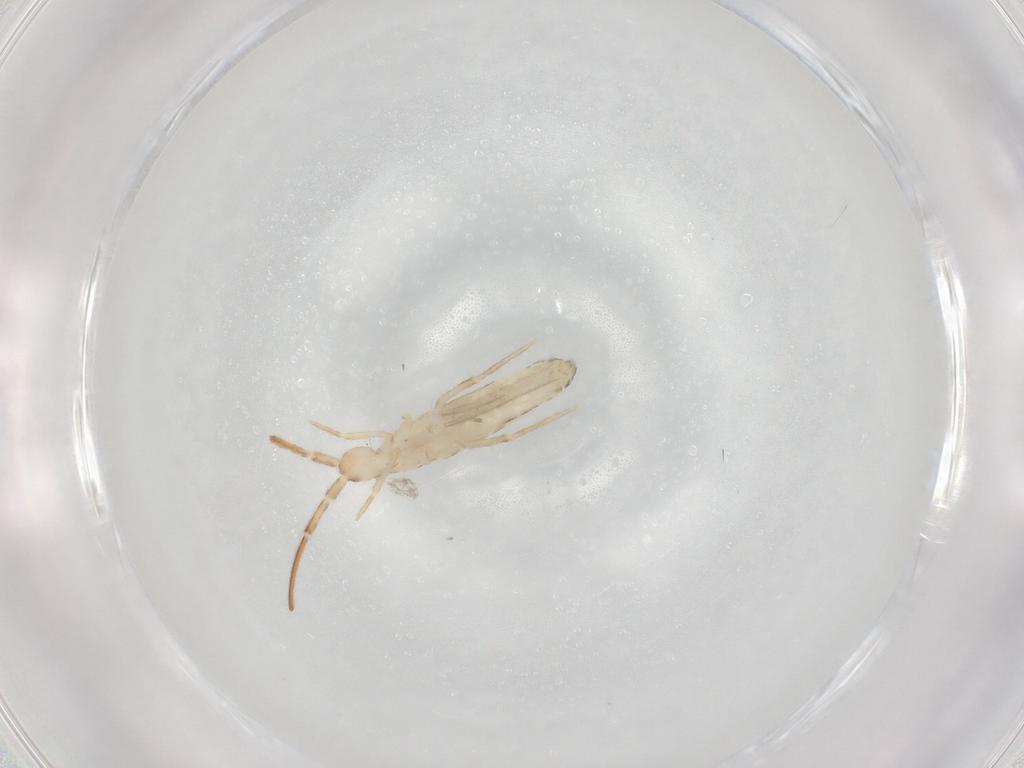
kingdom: Animalia
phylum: Arthropoda
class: Collembola
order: Entomobryomorpha
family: Entomobryidae
